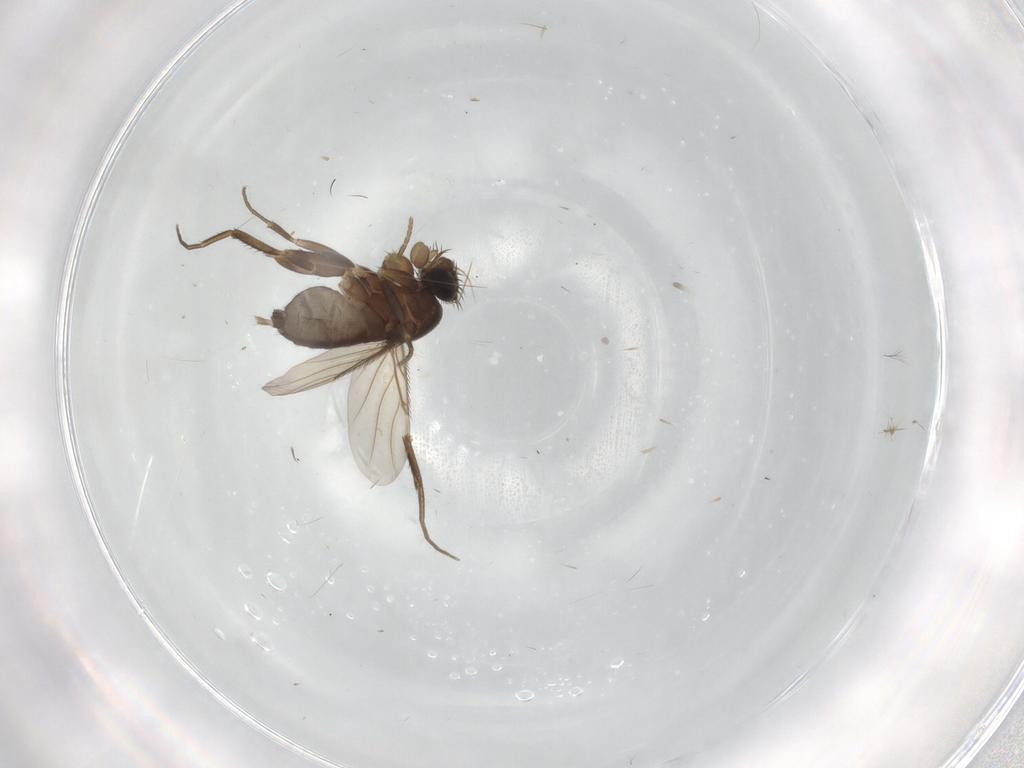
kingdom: Animalia
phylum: Arthropoda
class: Insecta
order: Diptera
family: Phoridae
